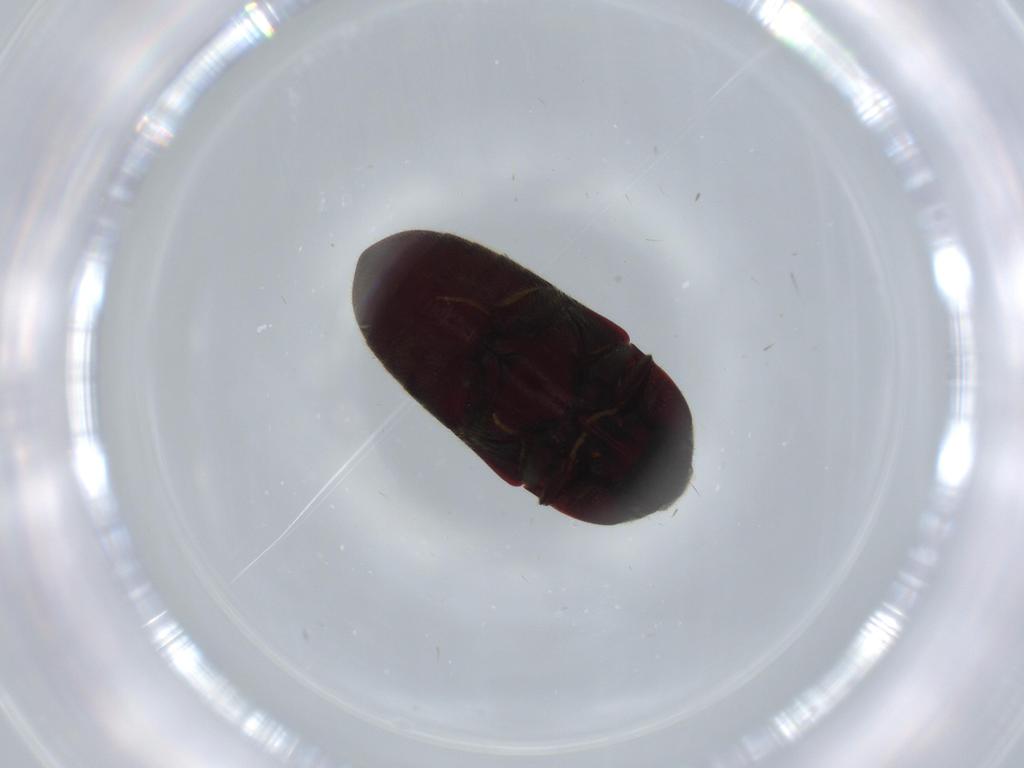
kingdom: Animalia
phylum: Arthropoda
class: Insecta
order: Coleoptera
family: Throscidae
